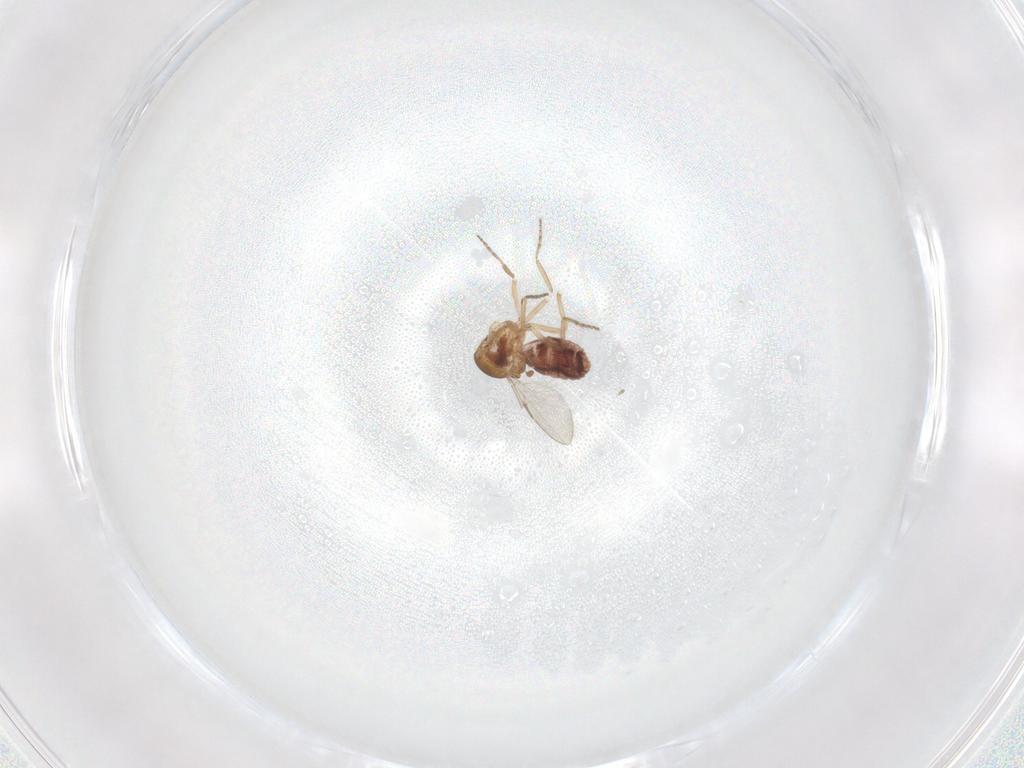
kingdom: Animalia
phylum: Arthropoda
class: Insecta
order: Diptera
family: Cecidomyiidae
